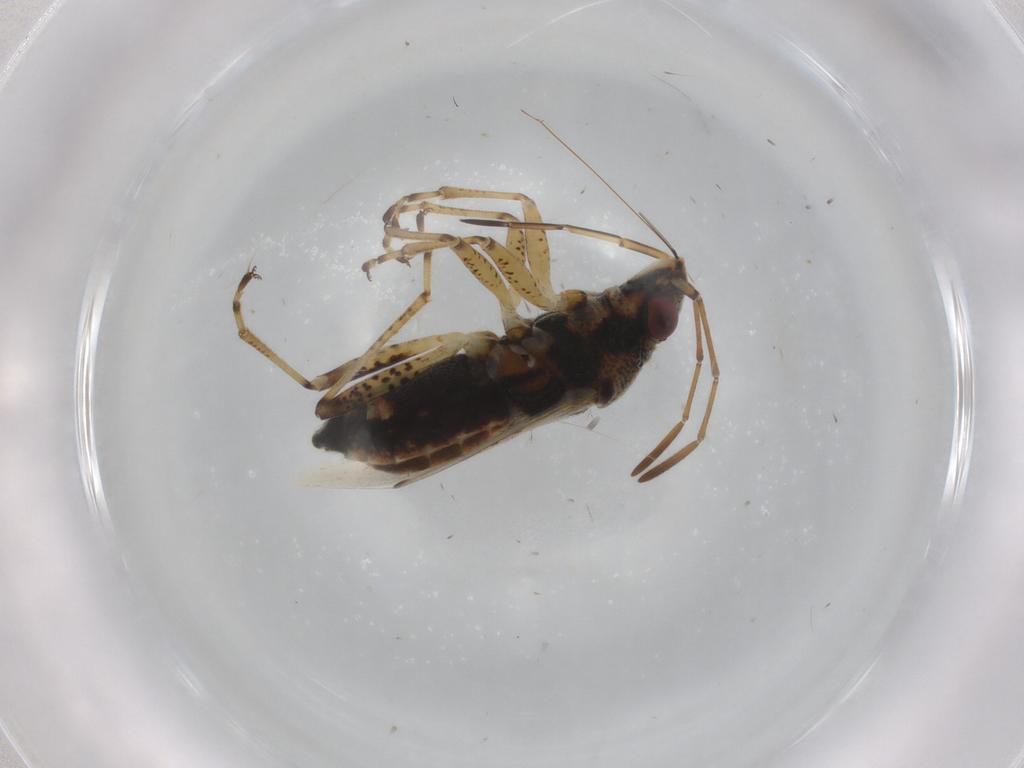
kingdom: Animalia
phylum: Arthropoda
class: Insecta
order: Hemiptera
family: Lygaeidae
